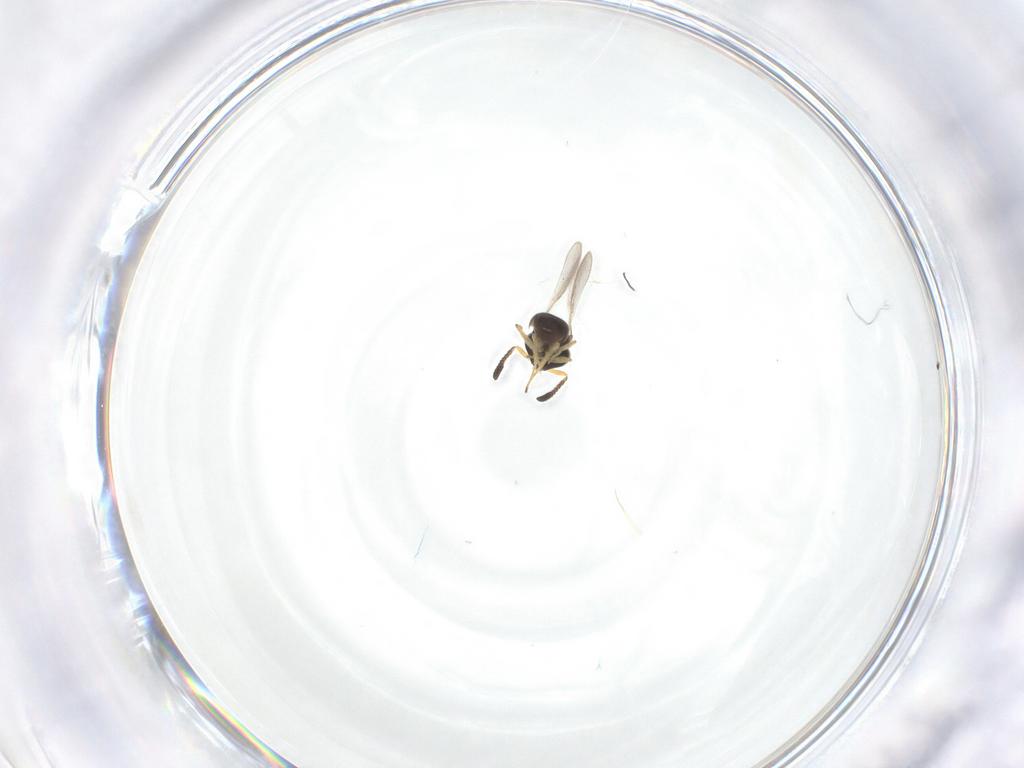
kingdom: Animalia
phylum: Arthropoda
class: Insecta
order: Hymenoptera
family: Scelionidae
